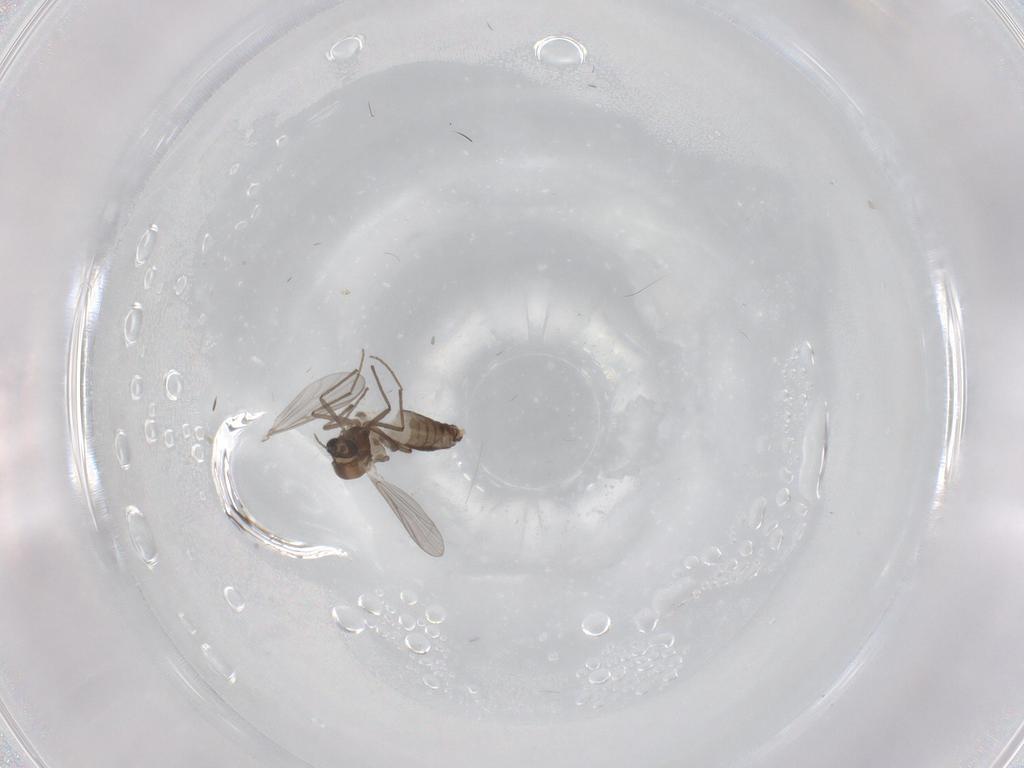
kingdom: Animalia
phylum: Arthropoda
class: Insecta
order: Diptera
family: Chironomidae
